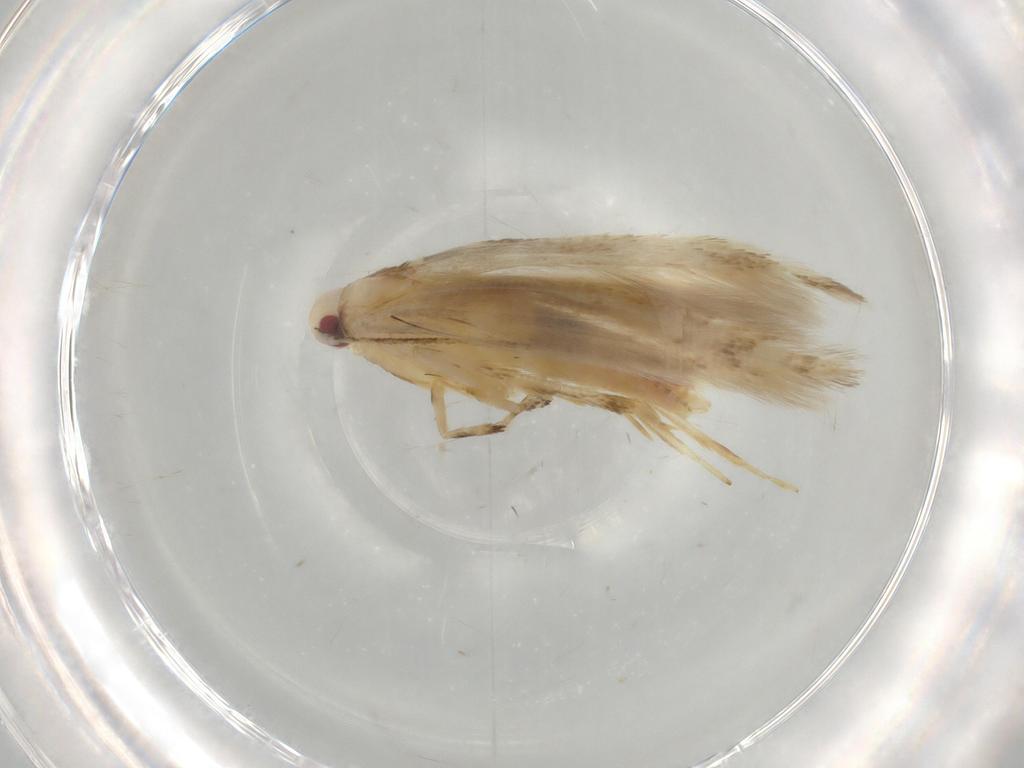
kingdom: Animalia
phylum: Arthropoda
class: Insecta
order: Lepidoptera
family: Cosmopterigidae
